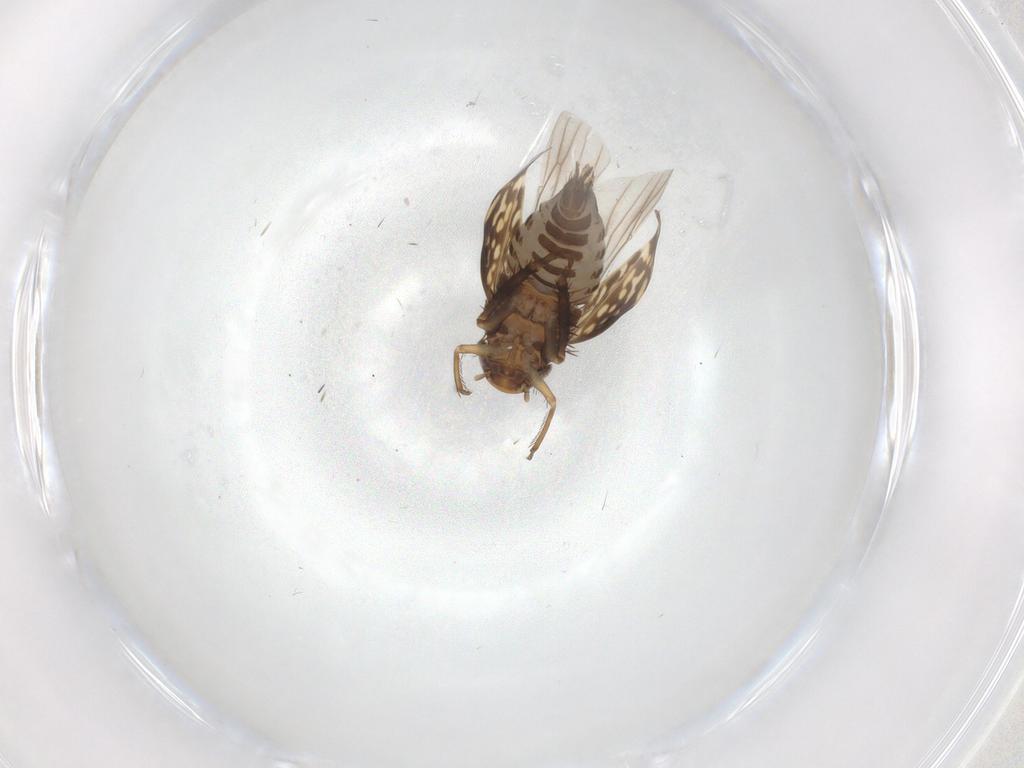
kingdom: Animalia
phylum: Arthropoda
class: Insecta
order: Hemiptera
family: Cicadellidae
